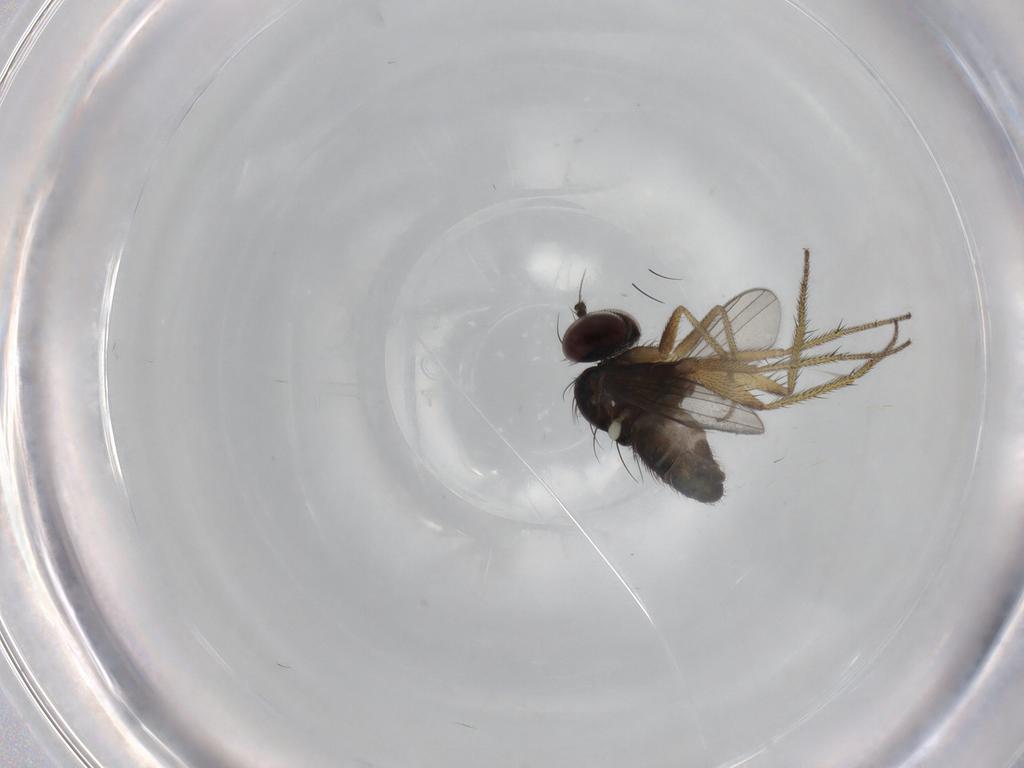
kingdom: Animalia
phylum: Arthropoda
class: Insecta
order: Diptera
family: Dolichopodidae
